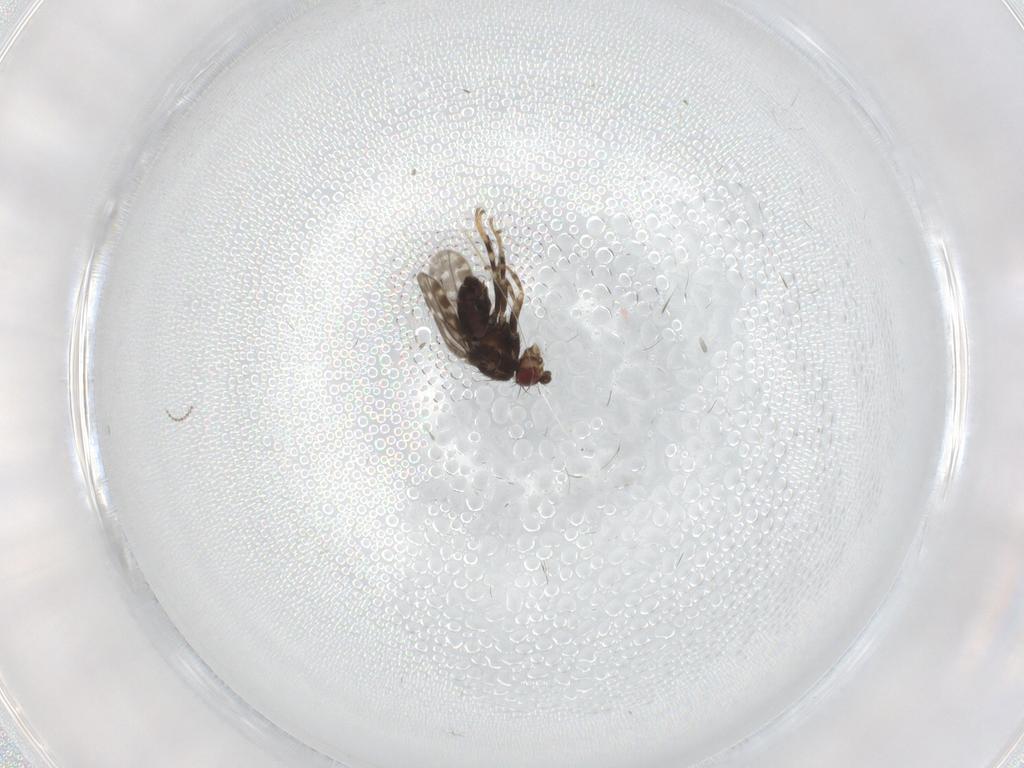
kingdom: Animalia
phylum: Arthropoda
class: Insecta
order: Diptera
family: Sphaeroceridae
